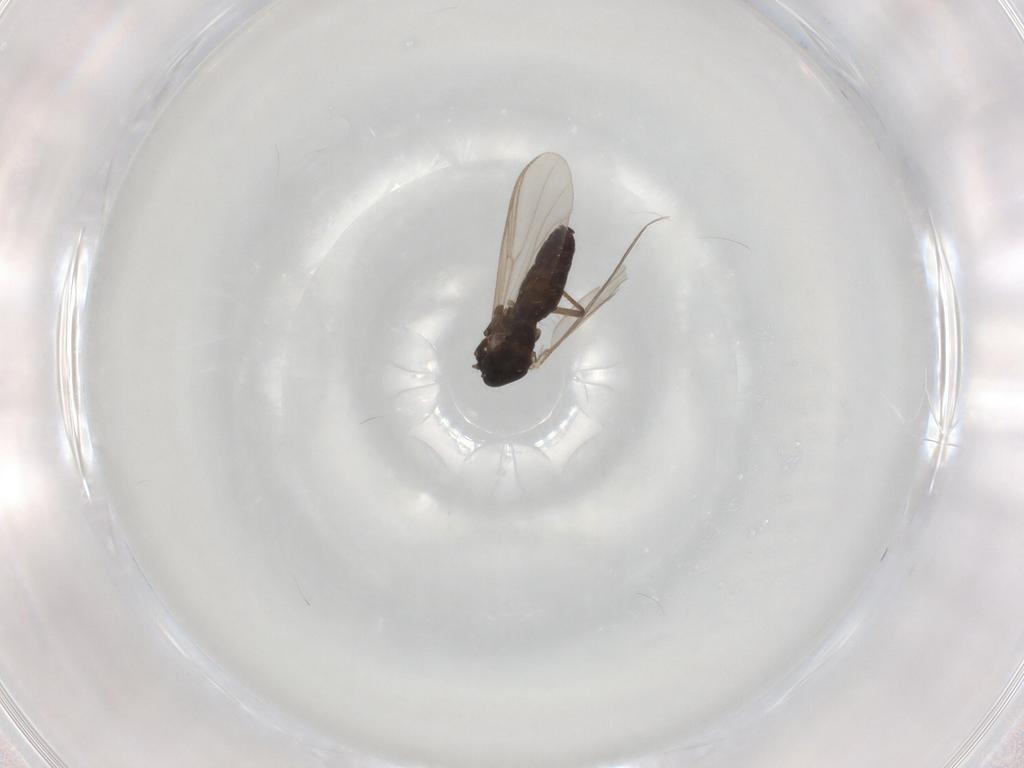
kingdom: Animalia
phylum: Arthropoda
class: Insecta
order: Diptera
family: Chironomidae
